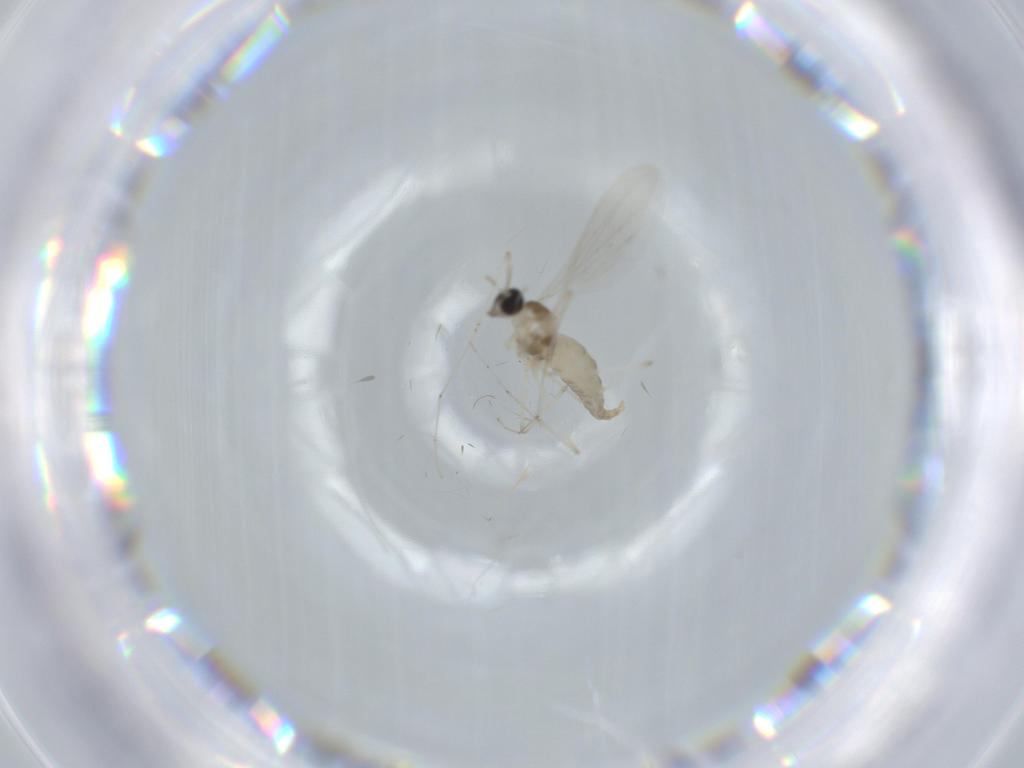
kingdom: Animalia
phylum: Arthropoda
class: Insecta
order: Diptera
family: Cecidomyiidae
